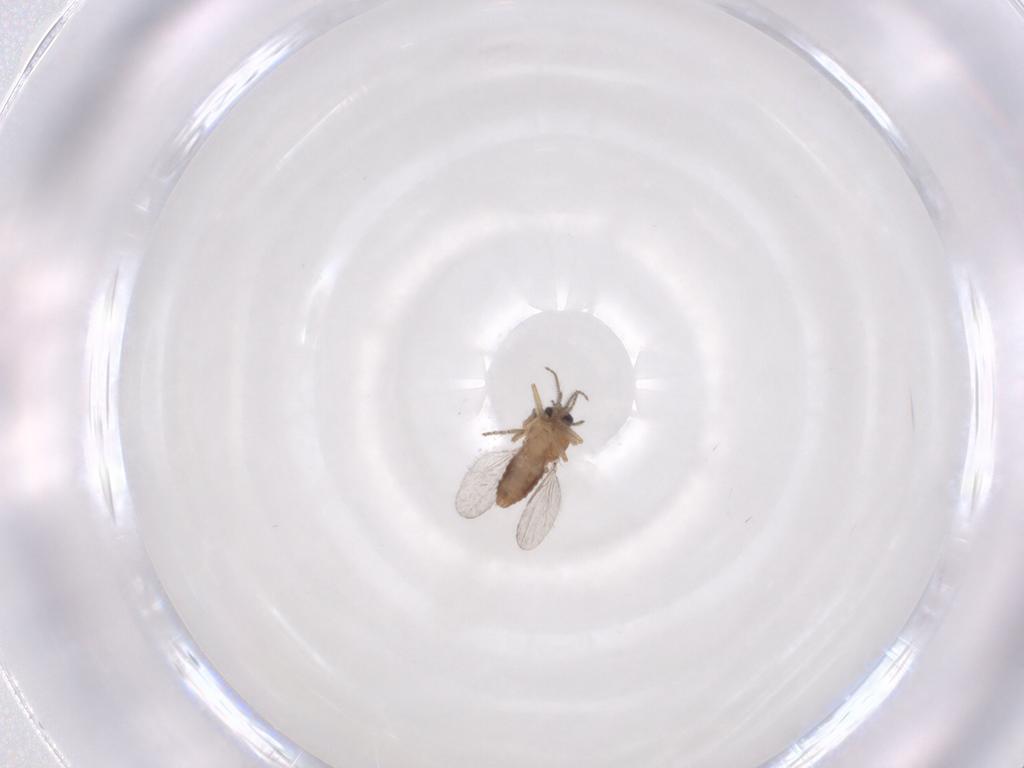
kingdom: Animalia
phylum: Arthropoda
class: Insecta
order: Diptera
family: Ceratopogonidae
